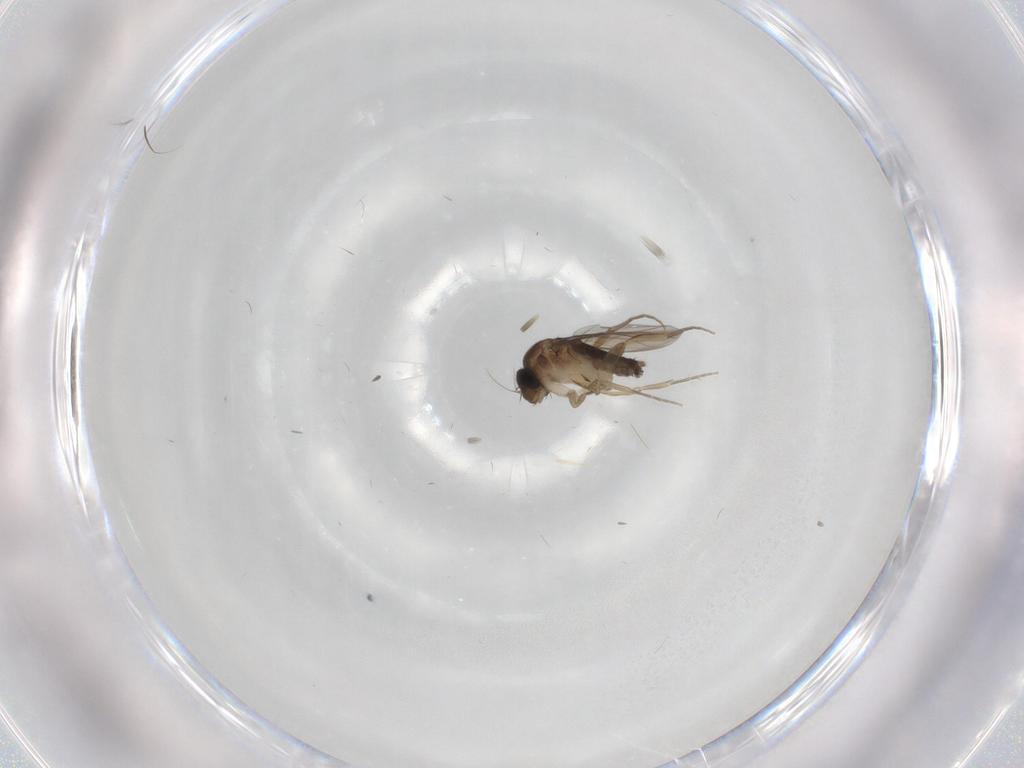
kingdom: Animalia
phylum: Arthropoda
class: Insecta
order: Diptera
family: Phoridae
